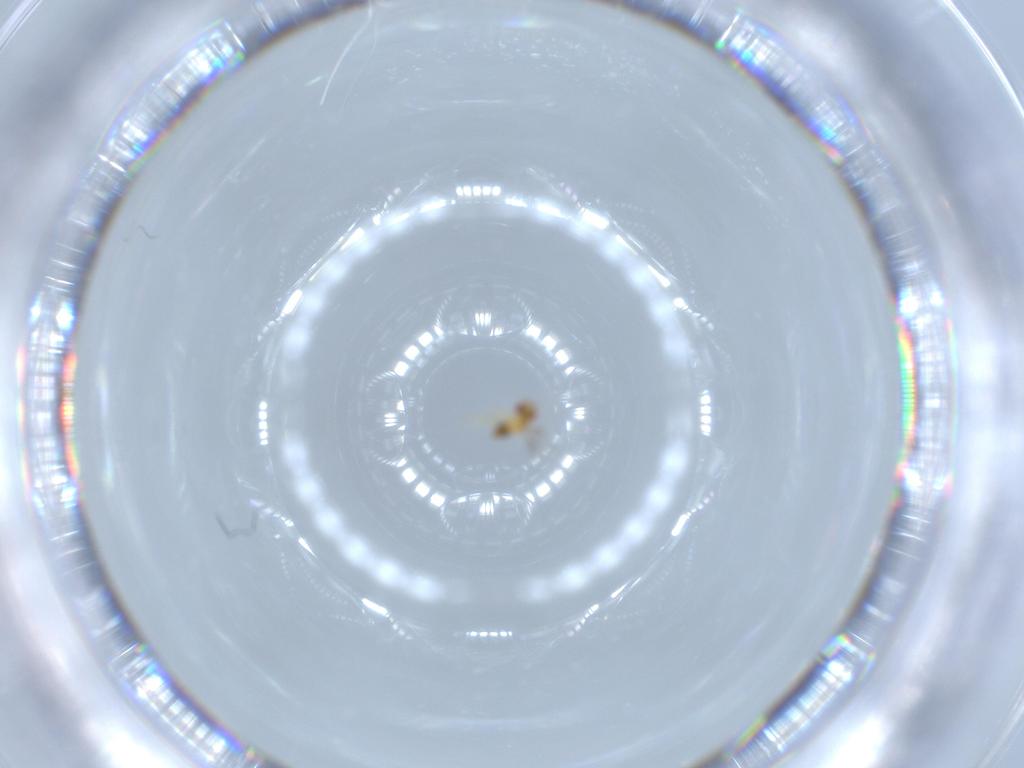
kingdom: Animalia
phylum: Arthropoda
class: Insecta
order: Hymenoptera
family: Trichogrammatidae
